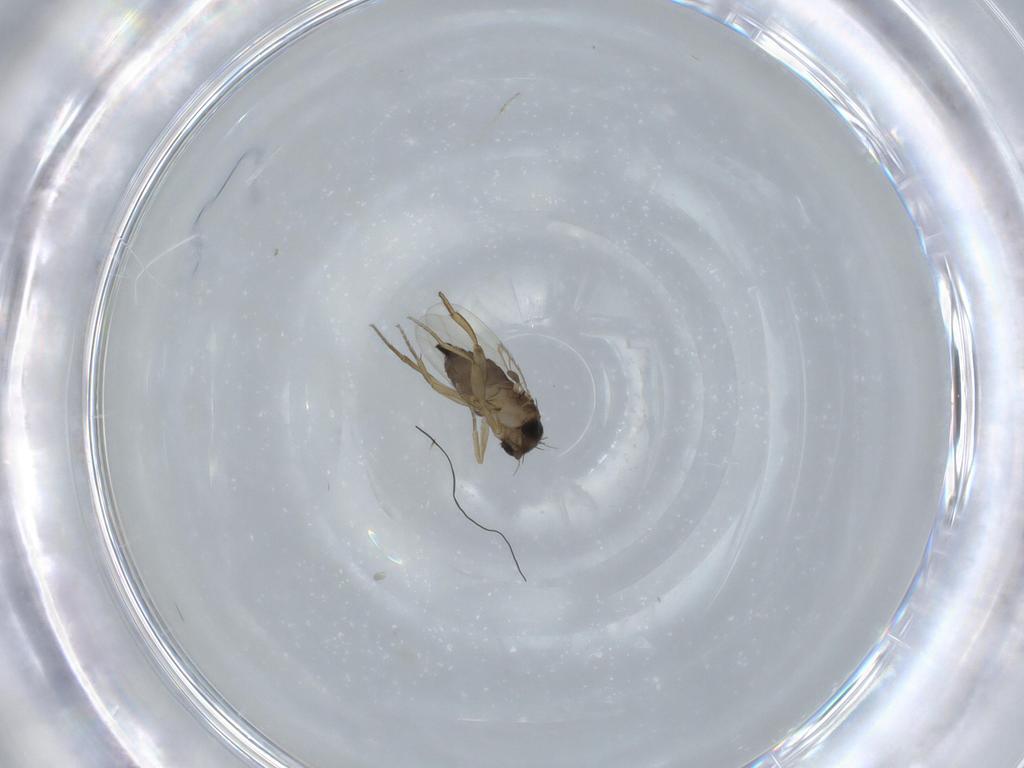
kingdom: Animalia
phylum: Arthropoda
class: Insecta
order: Diptera
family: Phoridae
